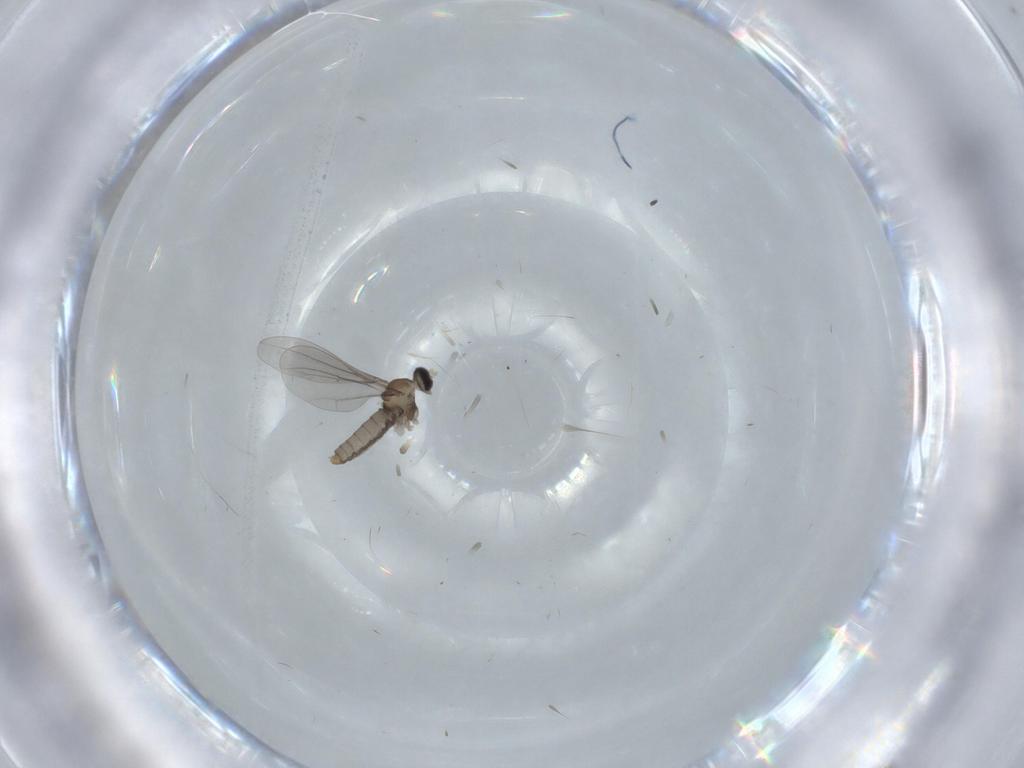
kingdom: Animalia
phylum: Arthropoda
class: Insecta
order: Diptera
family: Cecidomyiidae
